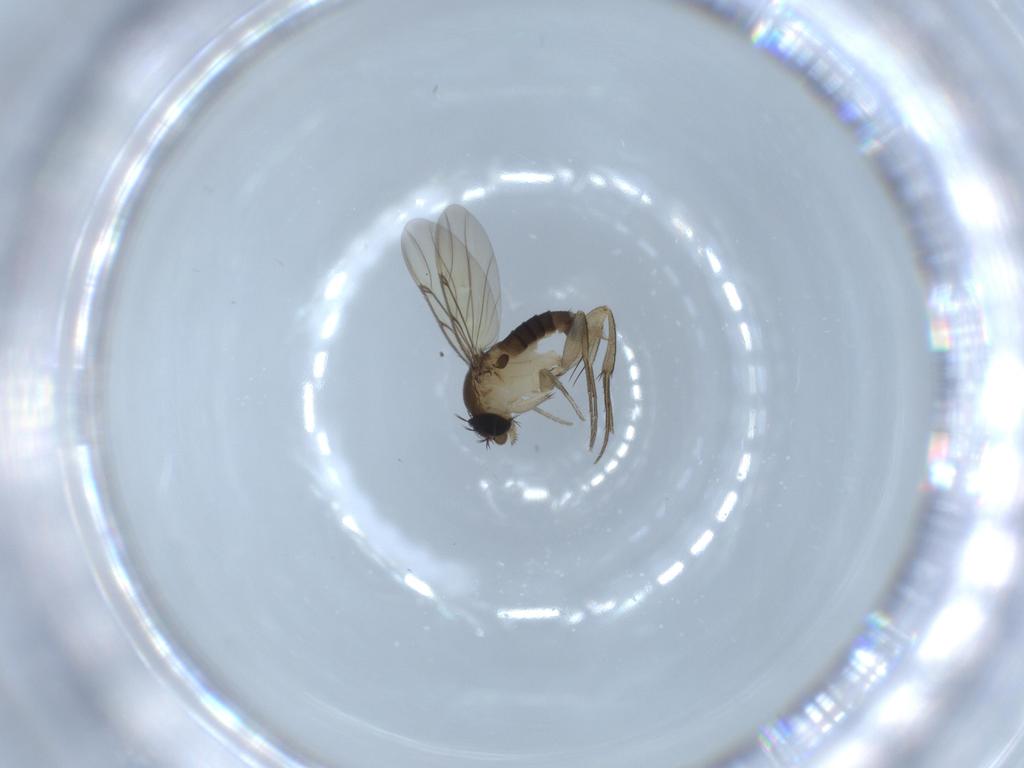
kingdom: Animalia
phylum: Arthropoda
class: Insecta
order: Diptera
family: Phoridae
